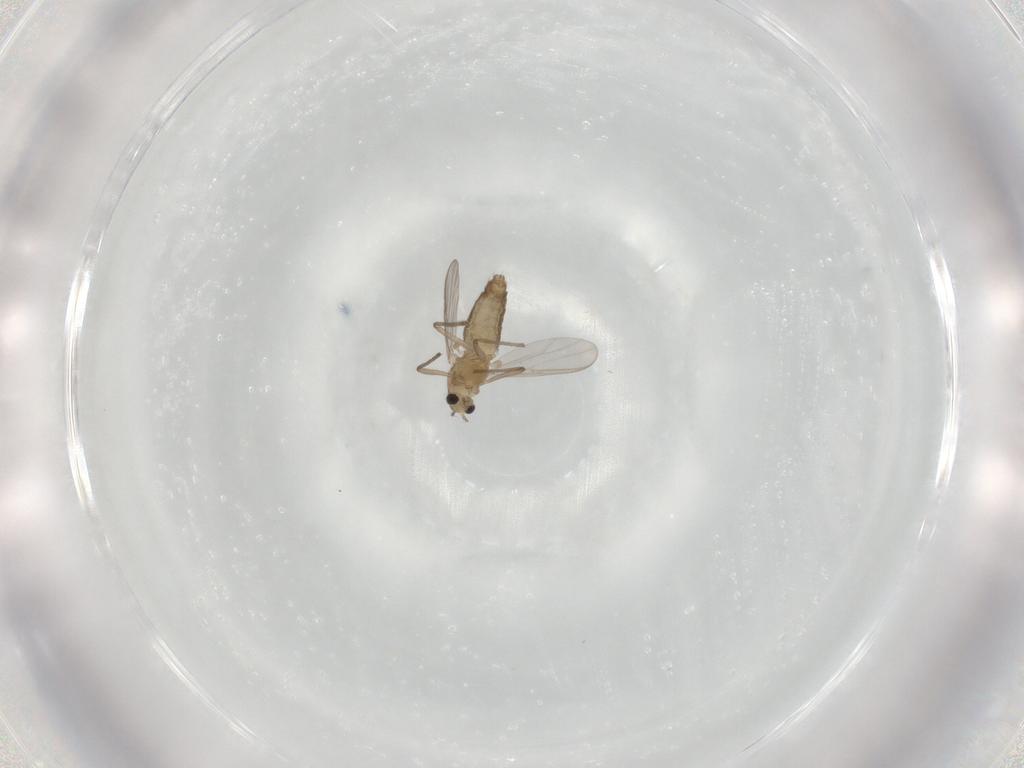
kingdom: Animalia
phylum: Arthropoda
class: Insecta
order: Diptera
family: Chironomidae
